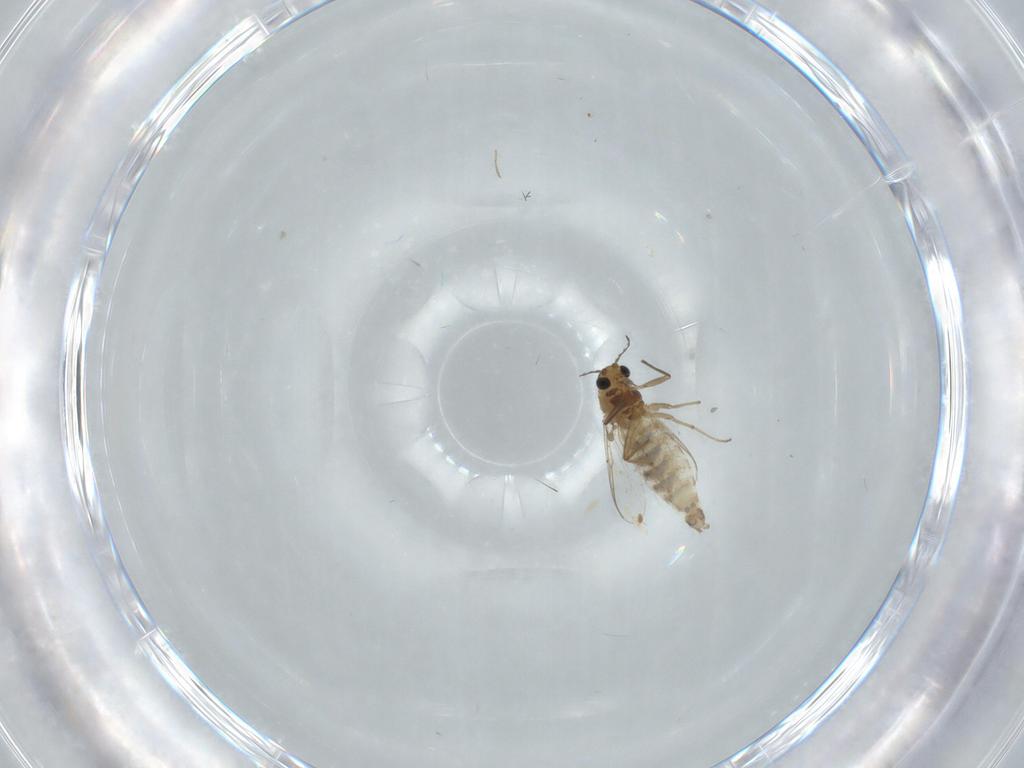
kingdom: Animalia
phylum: Arthropoda
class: Insecta
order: Diptera
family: Chironomidae
